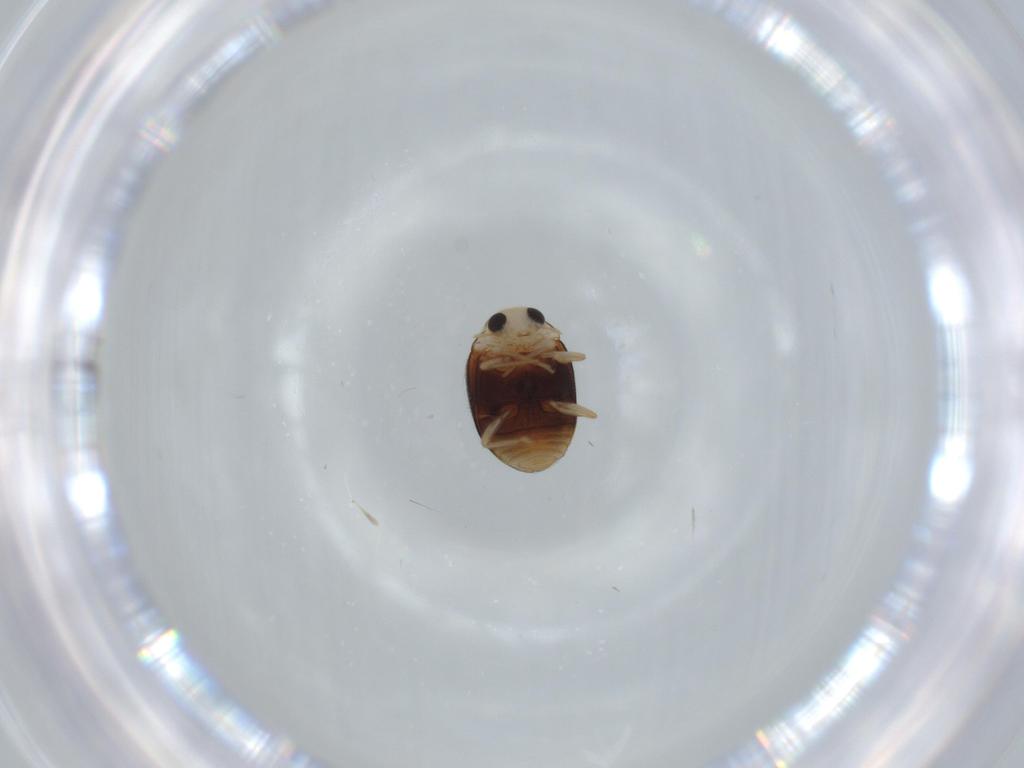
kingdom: Animalia
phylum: Arthropoda
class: Insecta
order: Coleoptera
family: Coccinellidae
